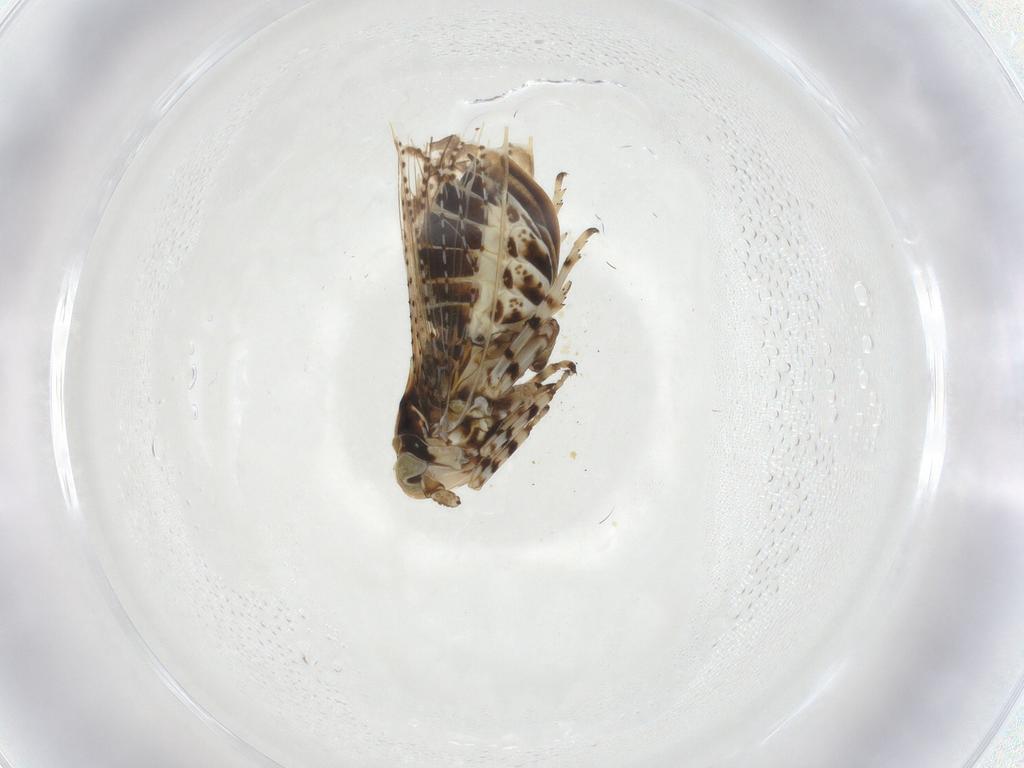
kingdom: Animalia
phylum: Arthropoda
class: Insecta
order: Hemiptera
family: Delphacidae
